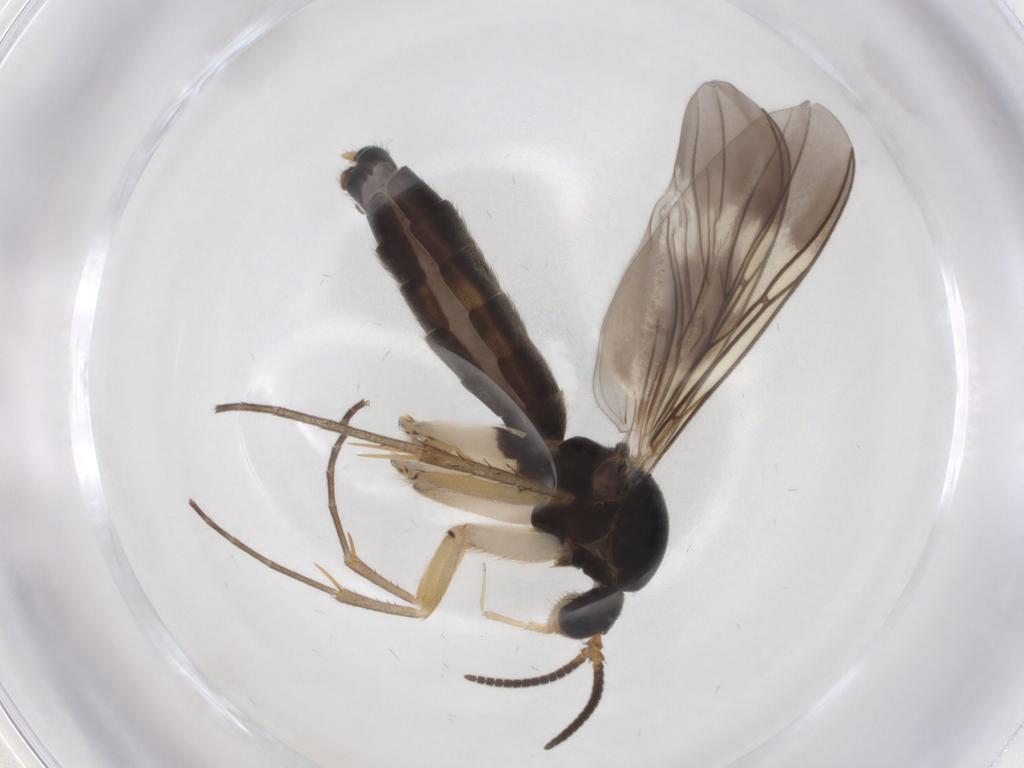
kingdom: Animalia
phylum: Arthropoda
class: Insecta
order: Diptera
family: Mycetophilidae
